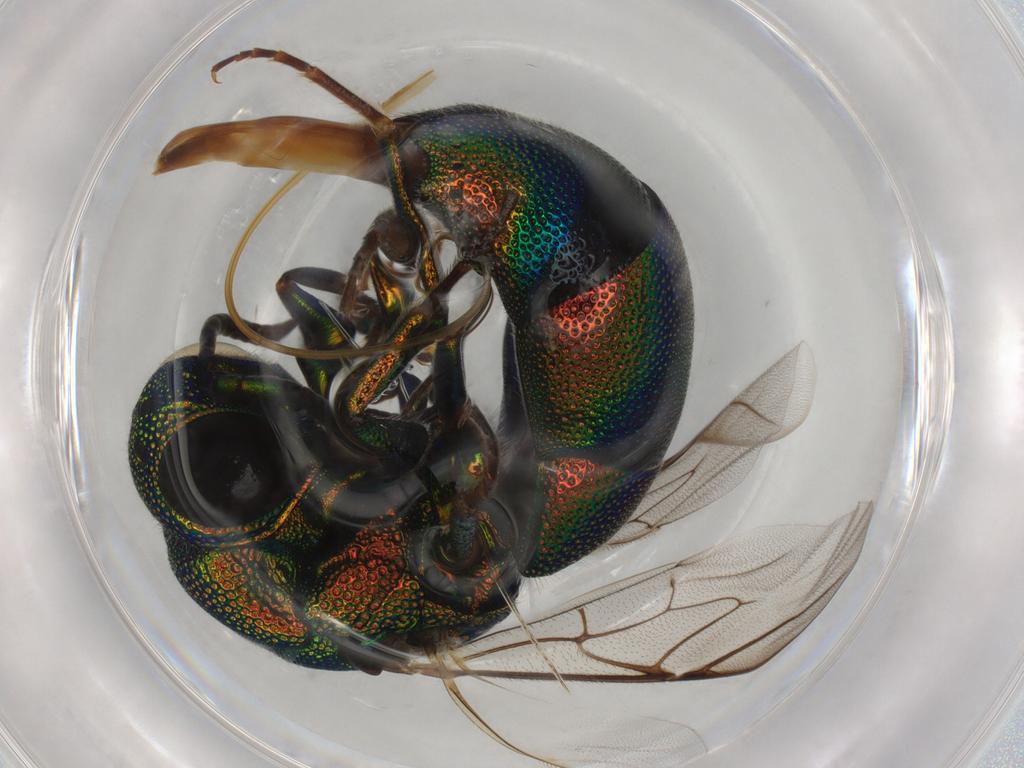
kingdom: Animalia
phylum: Arthropoda
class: Insecta
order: Hymenoptera
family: Chrysididae
